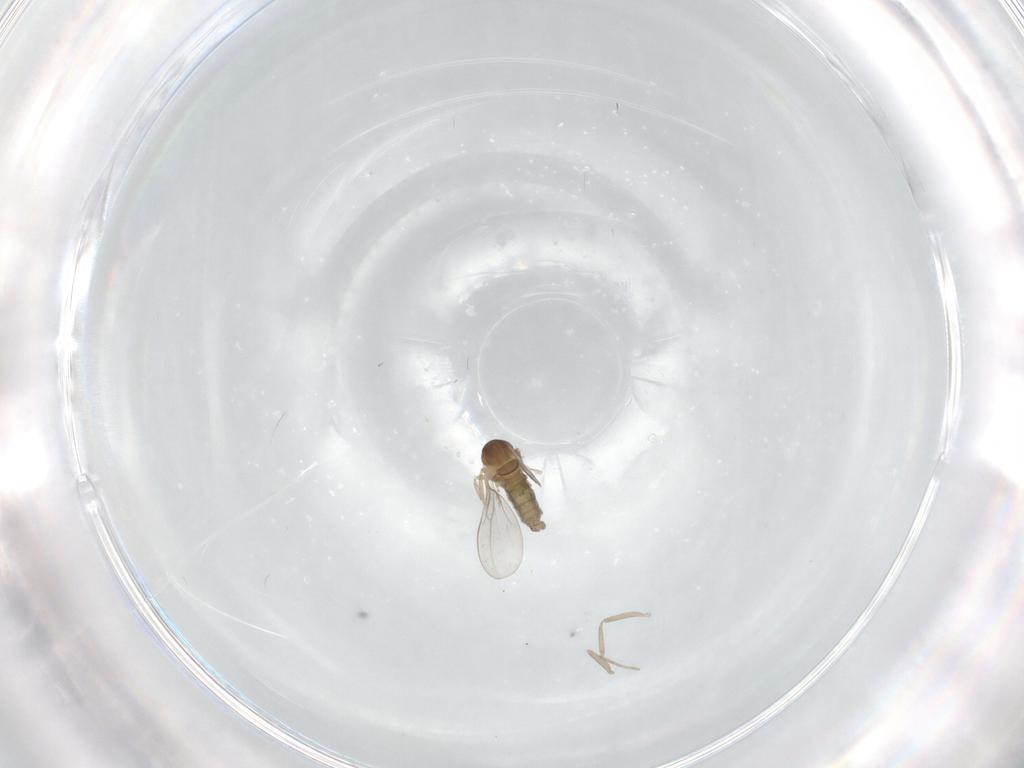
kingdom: Animalia
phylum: Arthropoda
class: Insecta
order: Diptera
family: Cecidomyiidae
